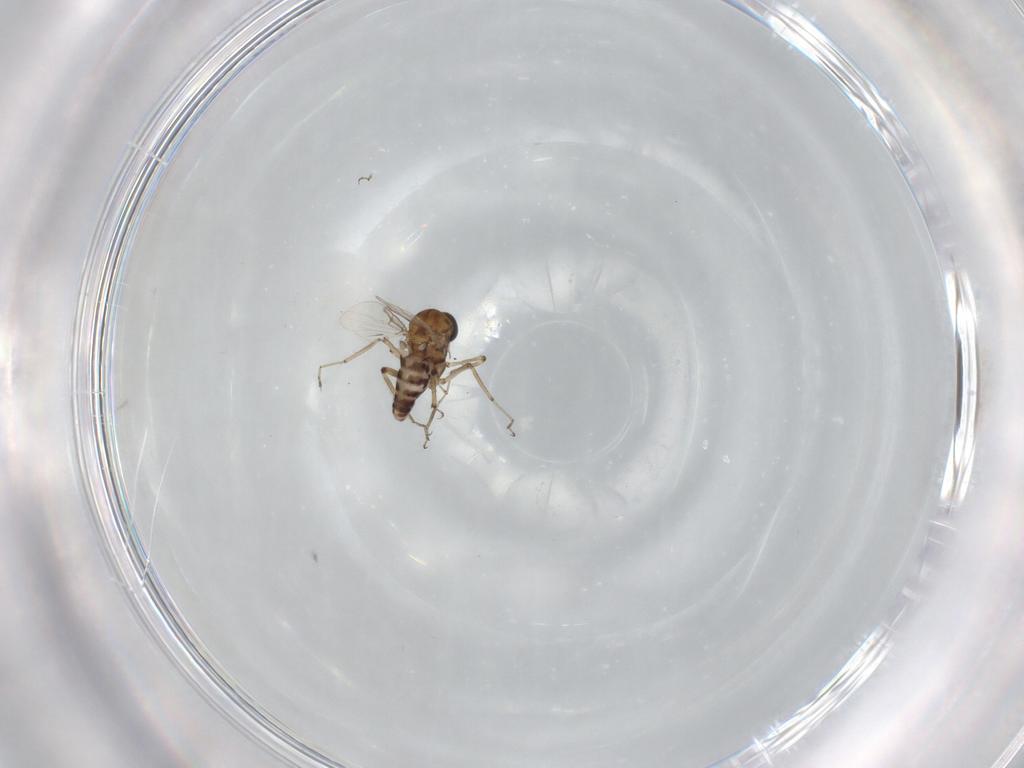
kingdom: Animalia
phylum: Arthropoda
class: Insecta
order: Diptera
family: Ceratopogonidae
